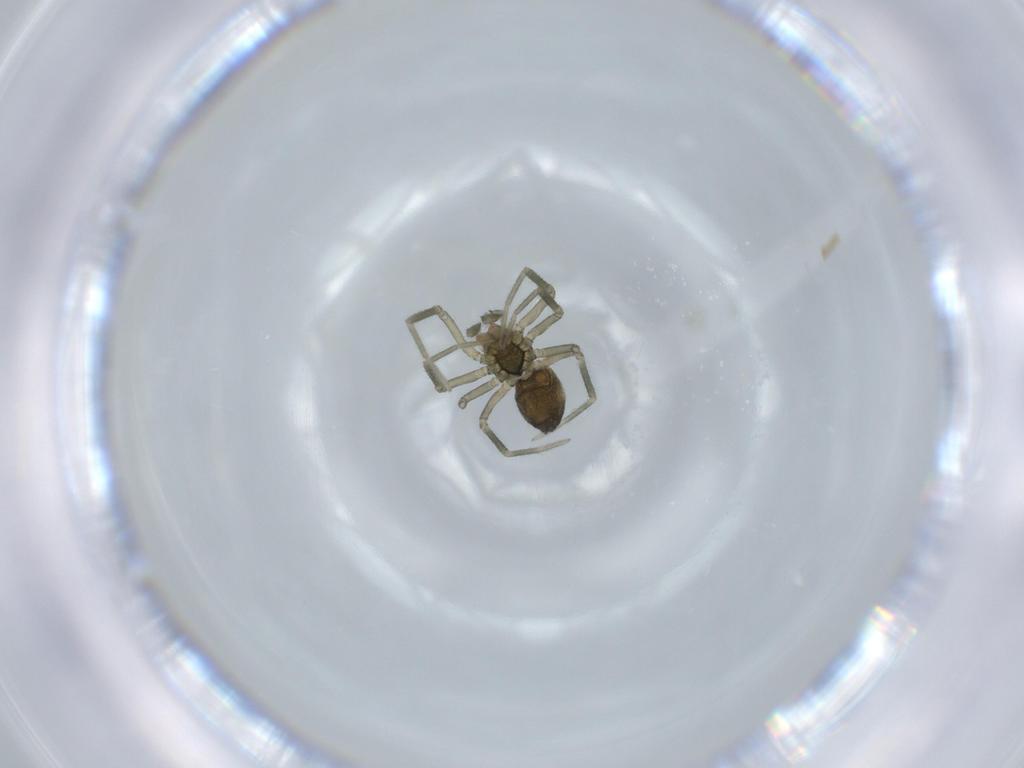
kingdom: Animalia
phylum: Arthropoda
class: Arachnida
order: Araneae
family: Linyphiidae
